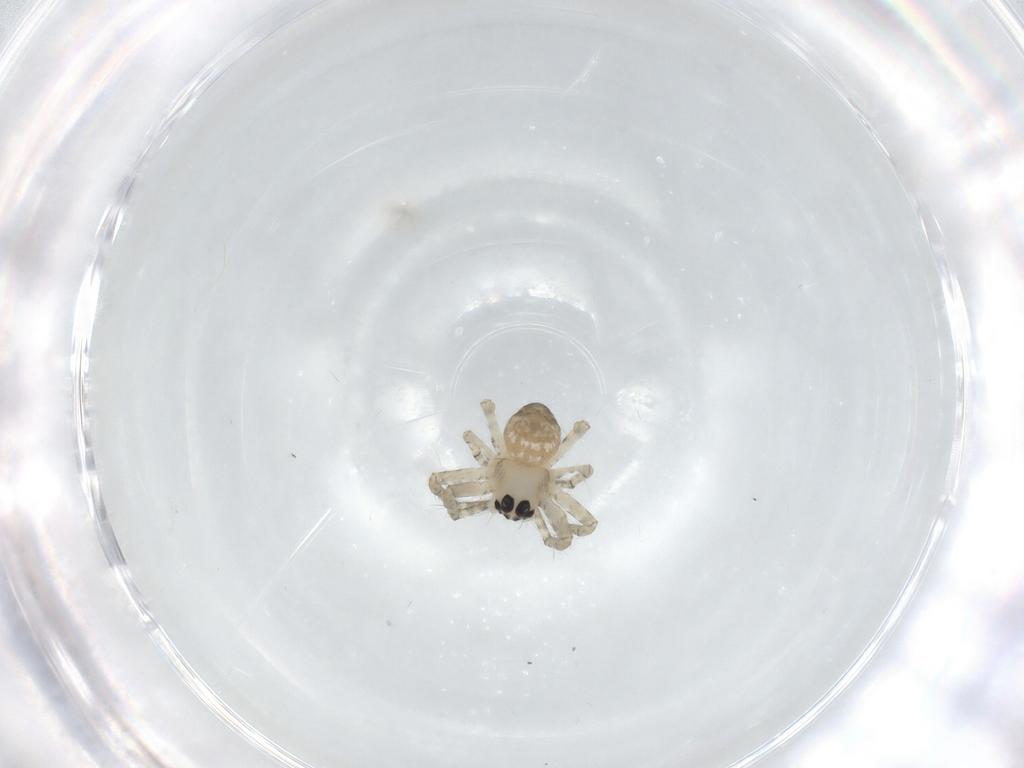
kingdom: Animalia
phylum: Arthropoda
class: Arachnida
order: Araneae
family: Araneidae
